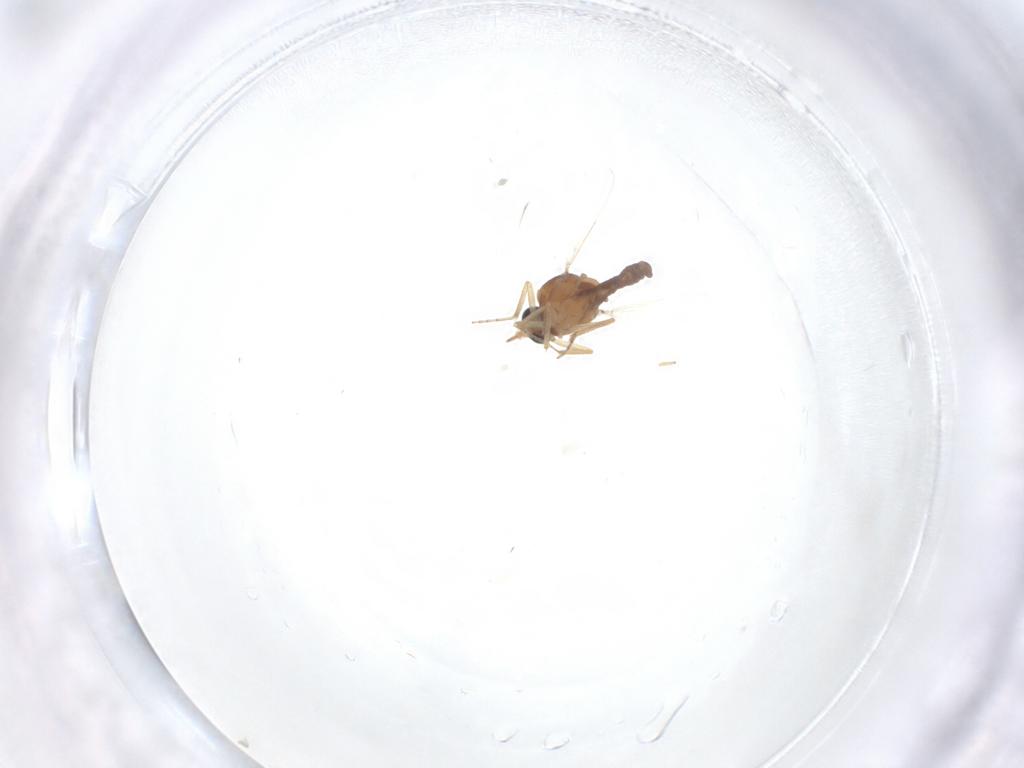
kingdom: Animalia
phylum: Arthropoda
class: Insecta
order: Diptera
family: Ceratopogonidae
